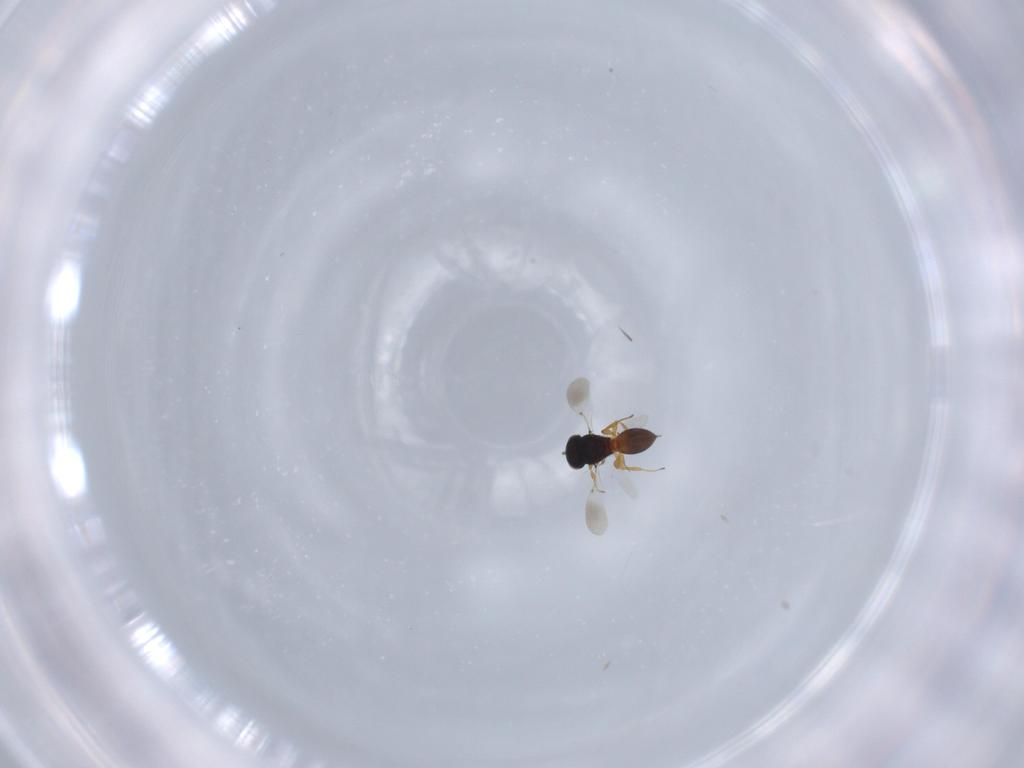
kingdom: Animalia
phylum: Arthropoda
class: Insecta
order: Hymenoptera
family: Platygastridae
